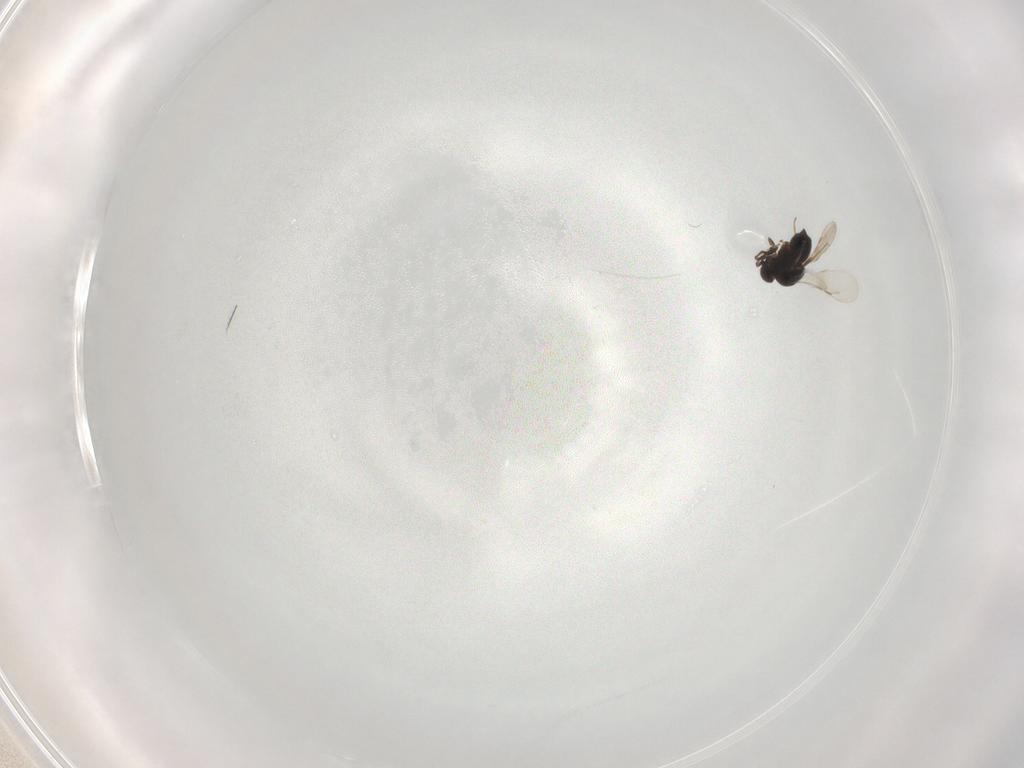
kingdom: Animalia
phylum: Arthropoda
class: Insecta
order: Hymenoptera
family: Ceraphronidae
